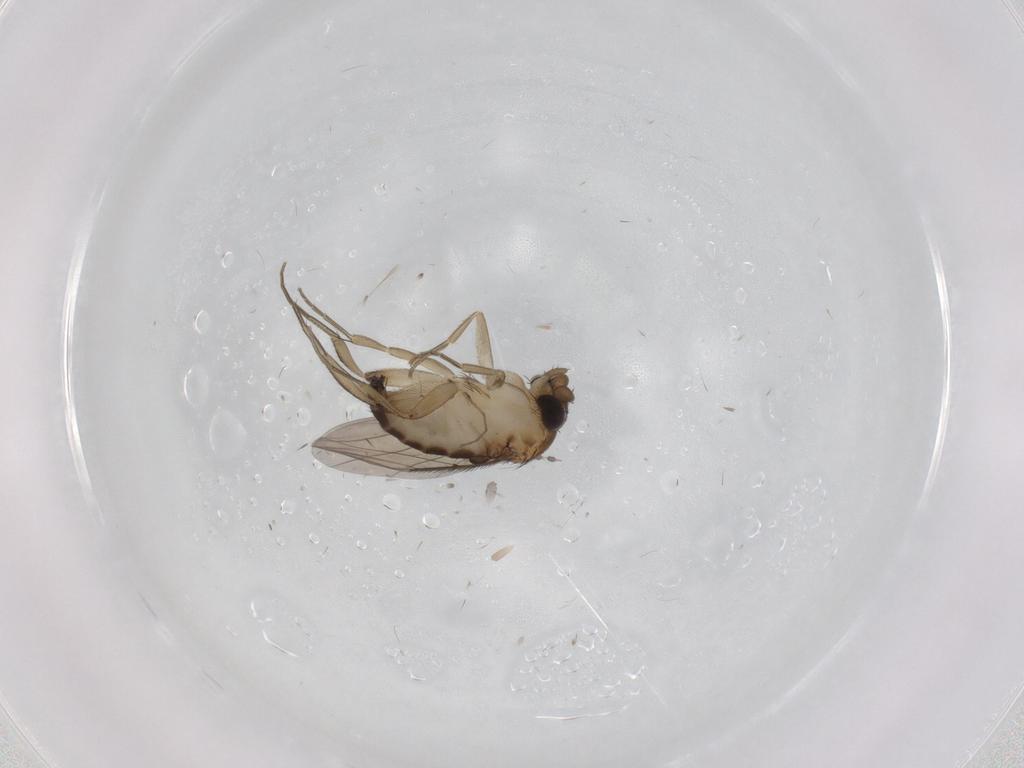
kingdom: Animalia
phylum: Arthropoda
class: Insecta
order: Diptera
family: Phoridae
